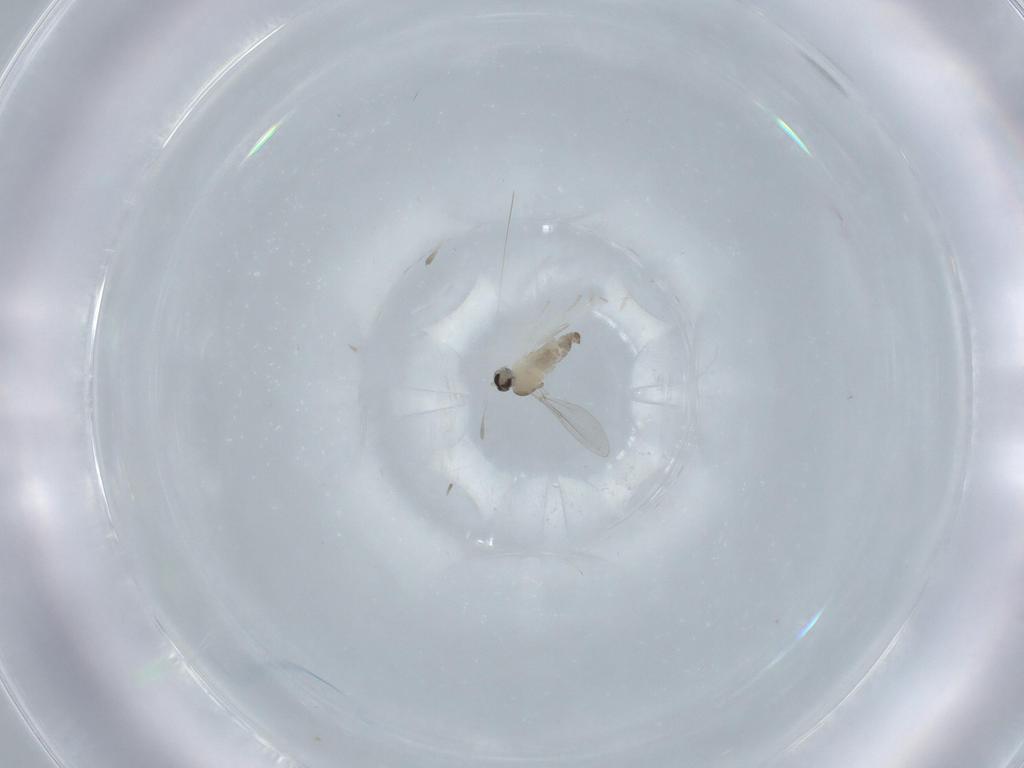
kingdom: Animalia
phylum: Arthropoda
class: Insecta
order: Diptera
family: Cecidomyiidae
